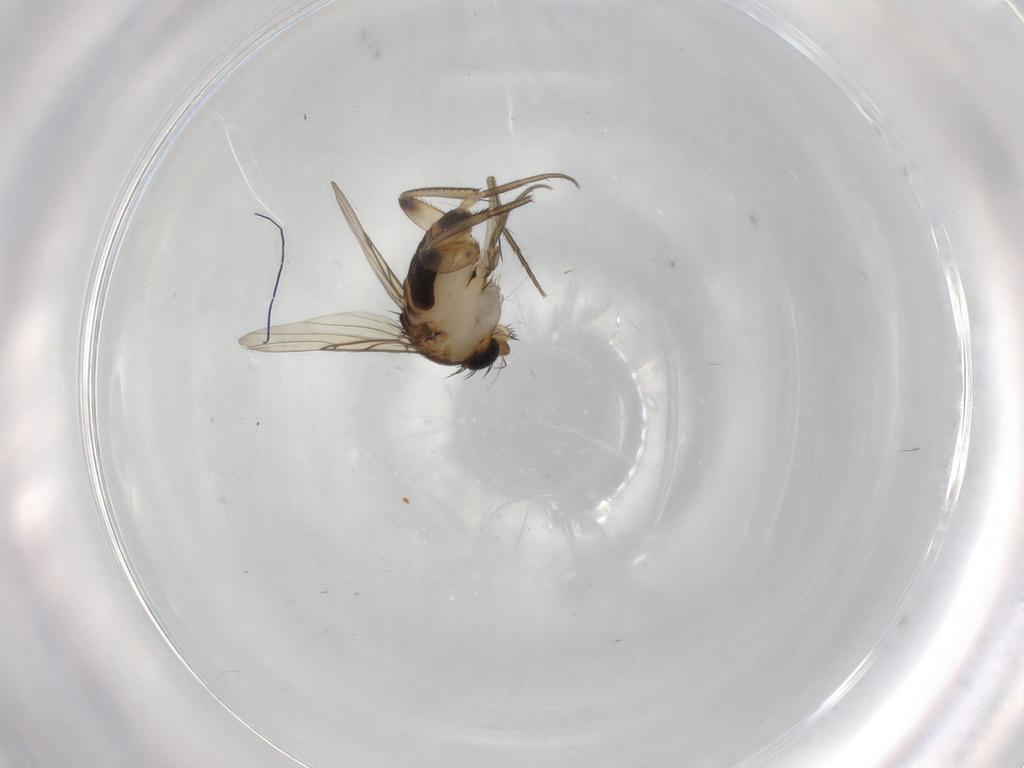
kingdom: Animalia
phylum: Arthropoda
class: Insecta
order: Diptera
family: Phoridae
